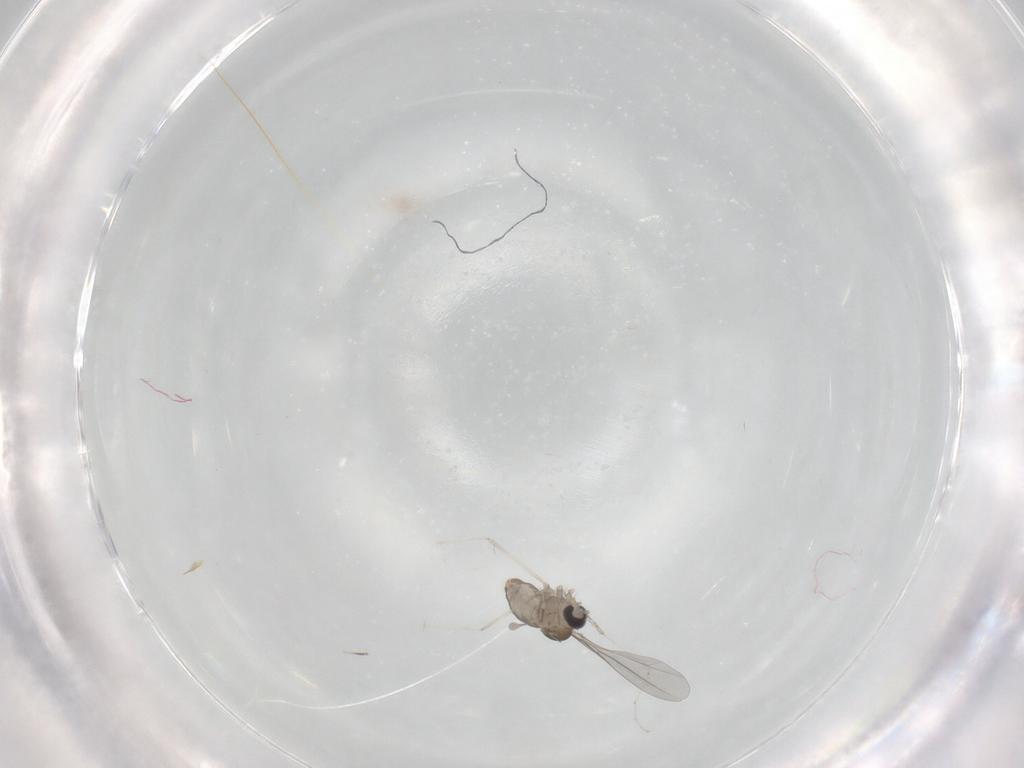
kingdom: Animalia
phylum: Arthropoda
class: Insecta
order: Diptera
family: Cecidomyiidae
